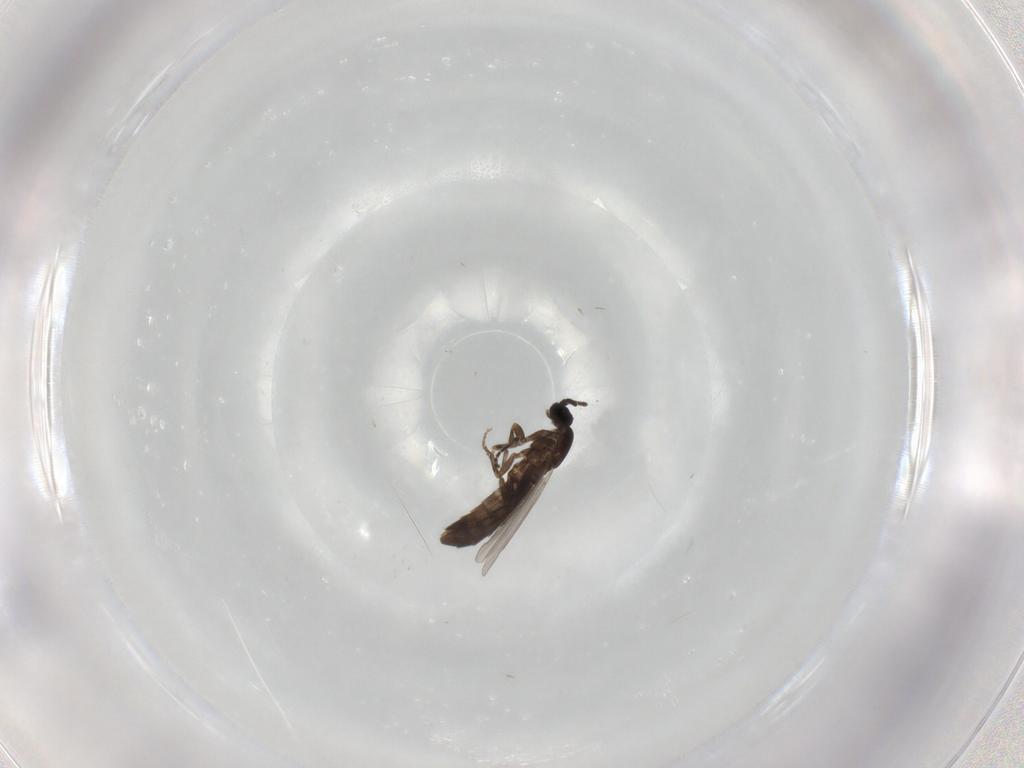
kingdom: Animalia
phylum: Arthropoda
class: Insecta
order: Diptera
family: Scatopsidae
